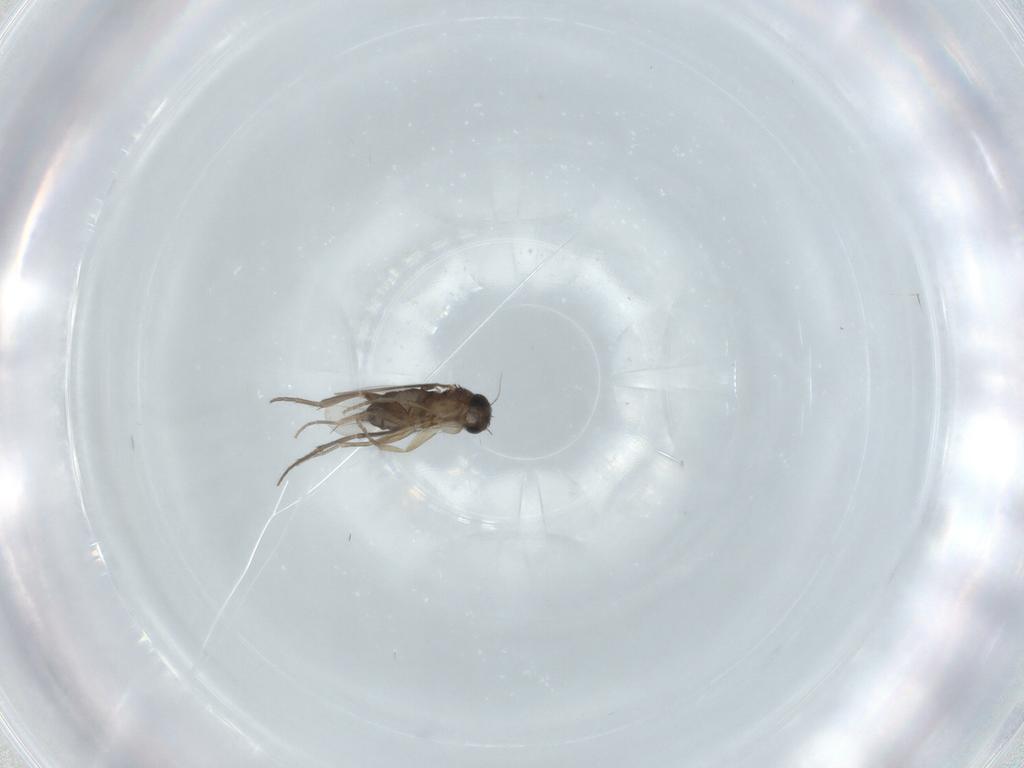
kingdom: Animalia
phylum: Arthropoda
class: Insecta
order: Diptera
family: Phoridae
